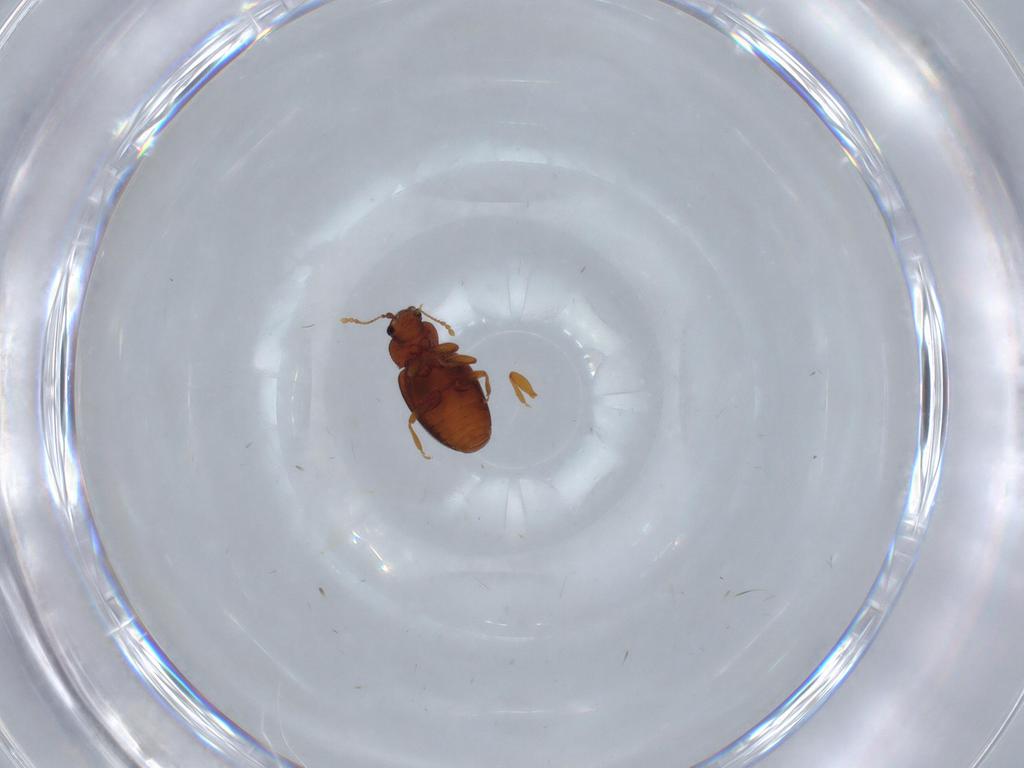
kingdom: Animalia
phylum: Arthropoda
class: Insecta
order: Coleoptera
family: Latridiidae
